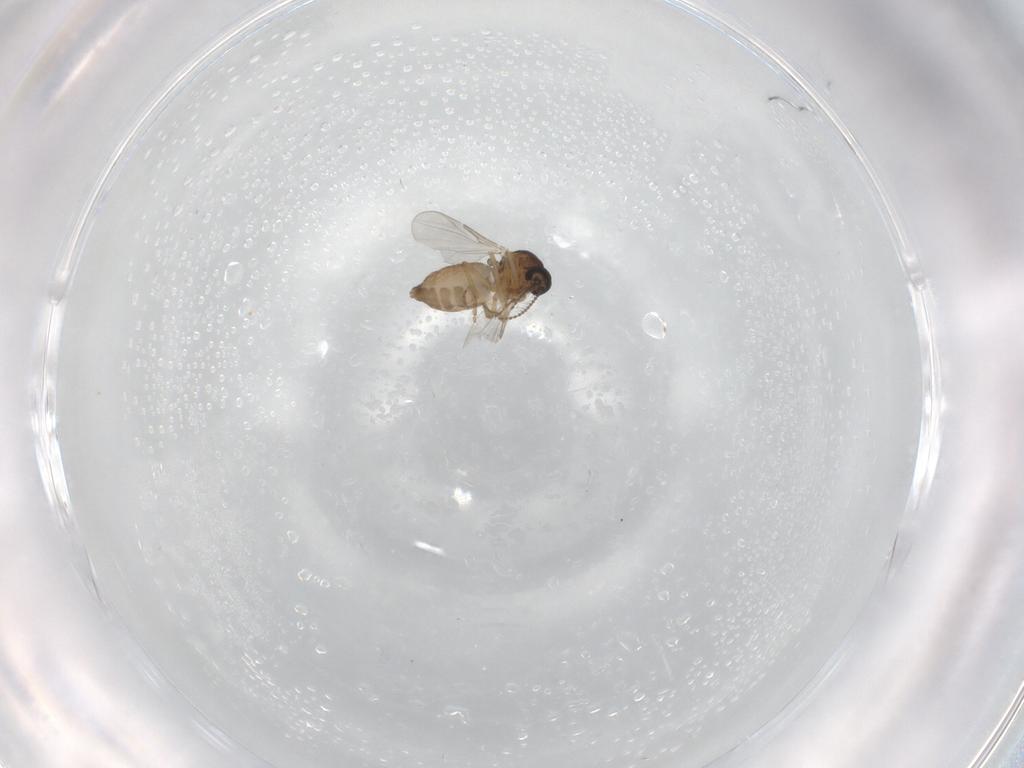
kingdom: Animalia
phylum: Arthropoda
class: Insecta
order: Diptera
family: Ceratopogonidae
